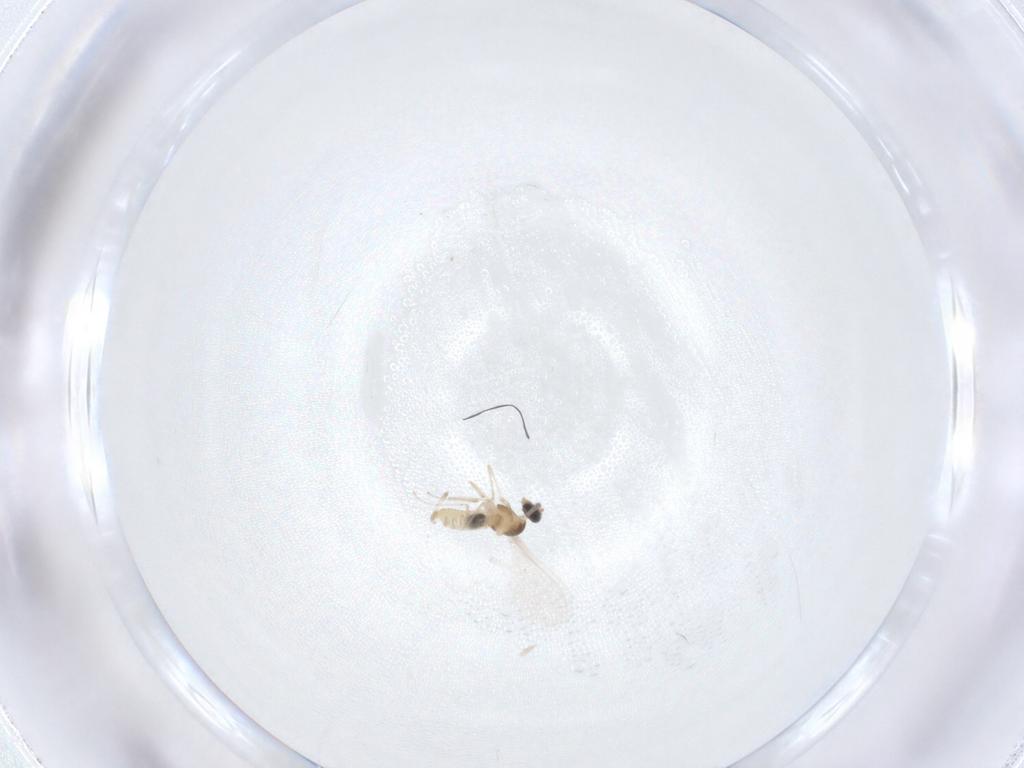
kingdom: Animalia
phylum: Arthropoda
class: Insecta
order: Diptera
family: Cecidomyiidae
